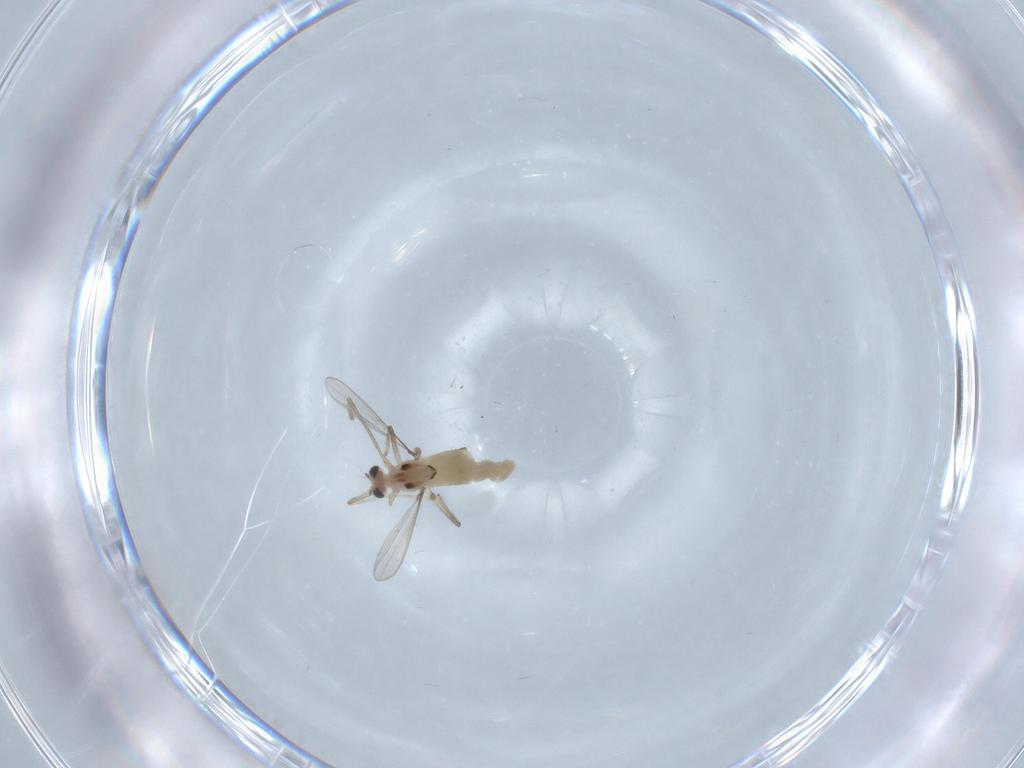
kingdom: Animalia
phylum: Arthropoda
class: Insecta
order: Diptera
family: Chironomidae
